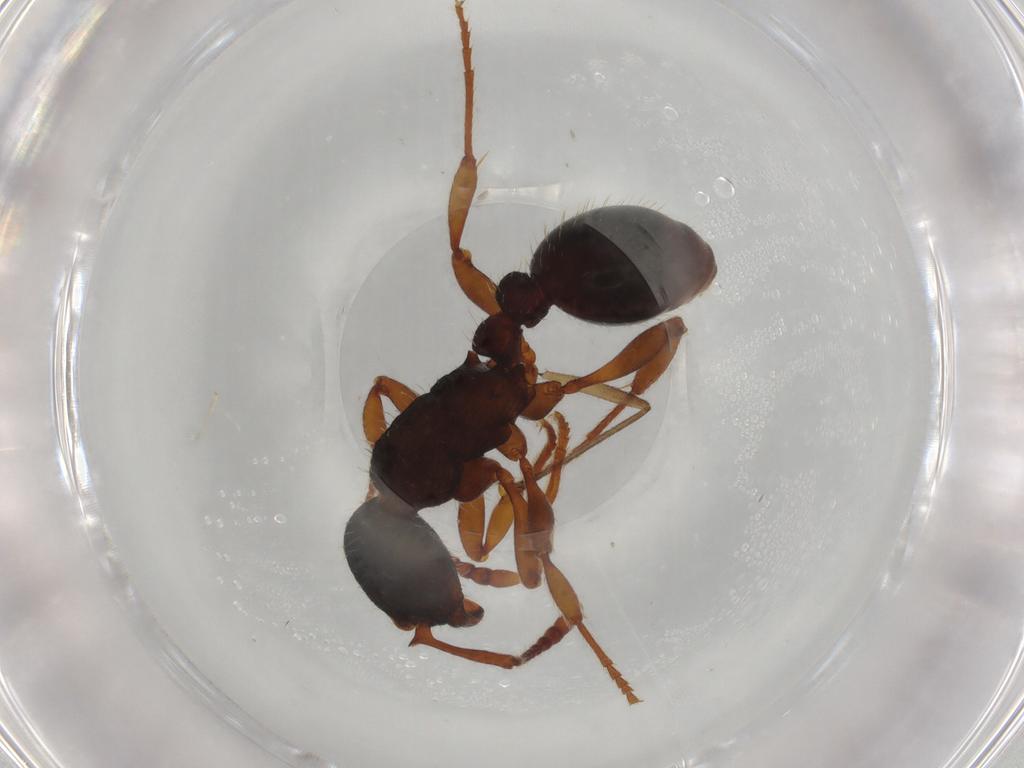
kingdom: Animalia
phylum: Arthropoda
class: Insecta
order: Hymenoptera
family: Formicidae
